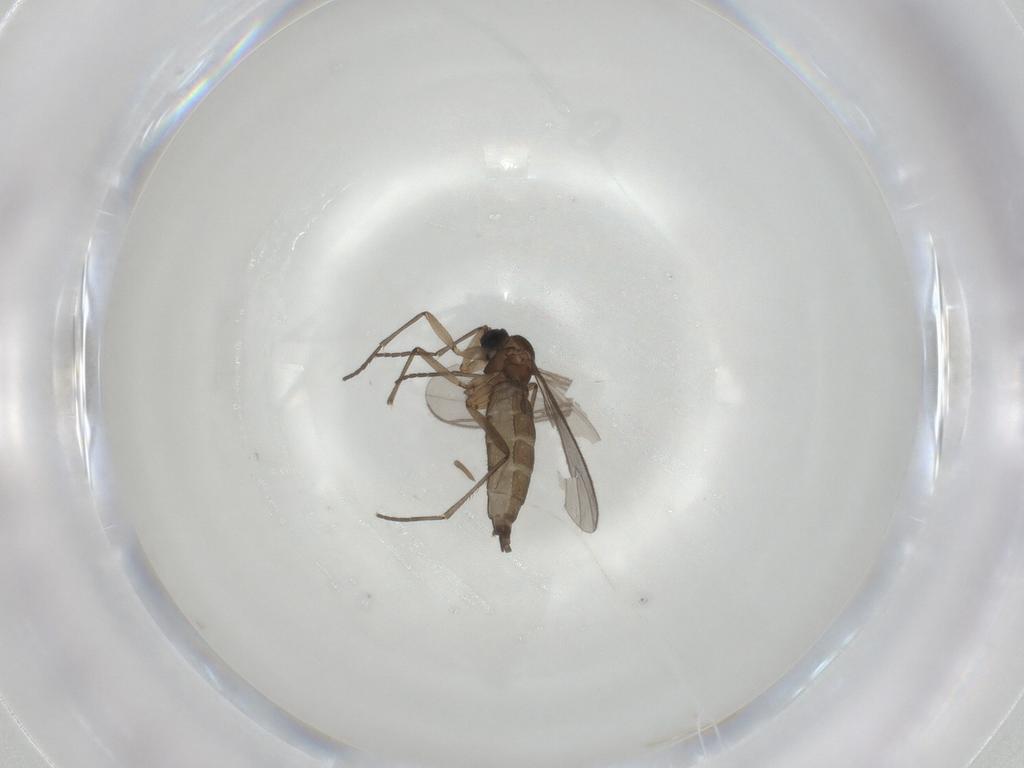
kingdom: Animalia
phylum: Arthropoda
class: Insecta
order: Diptera
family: Sciaridae
